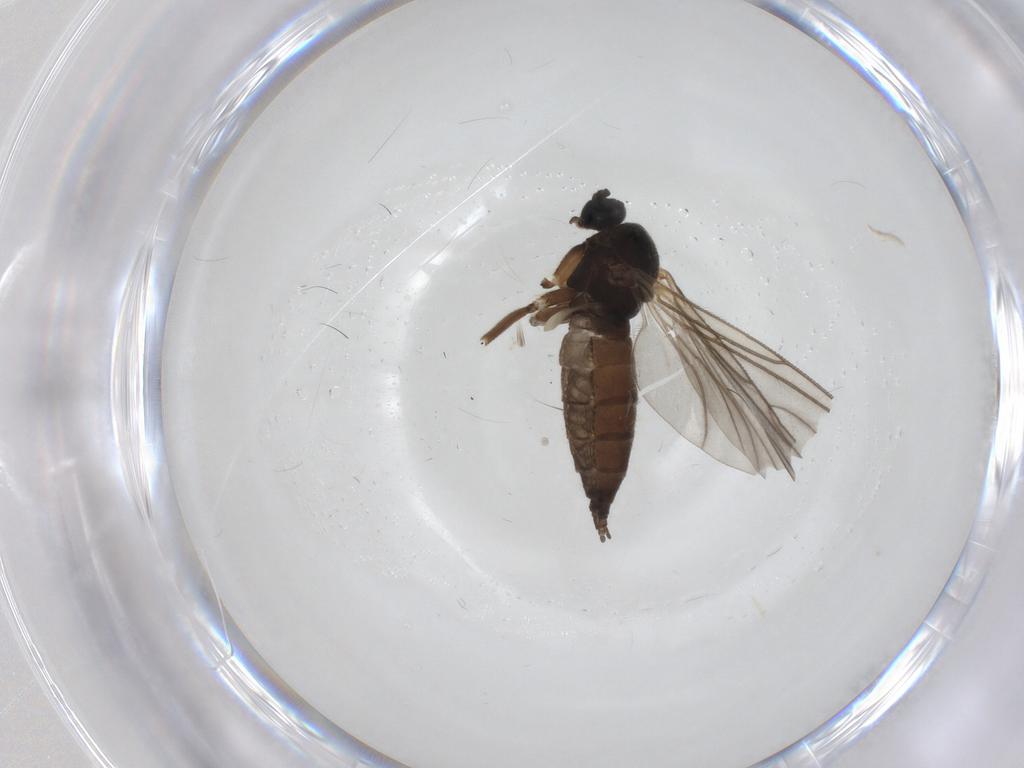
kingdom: Animalia
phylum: Arthropoda
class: Insecta
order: Diptera
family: Sciaridae
